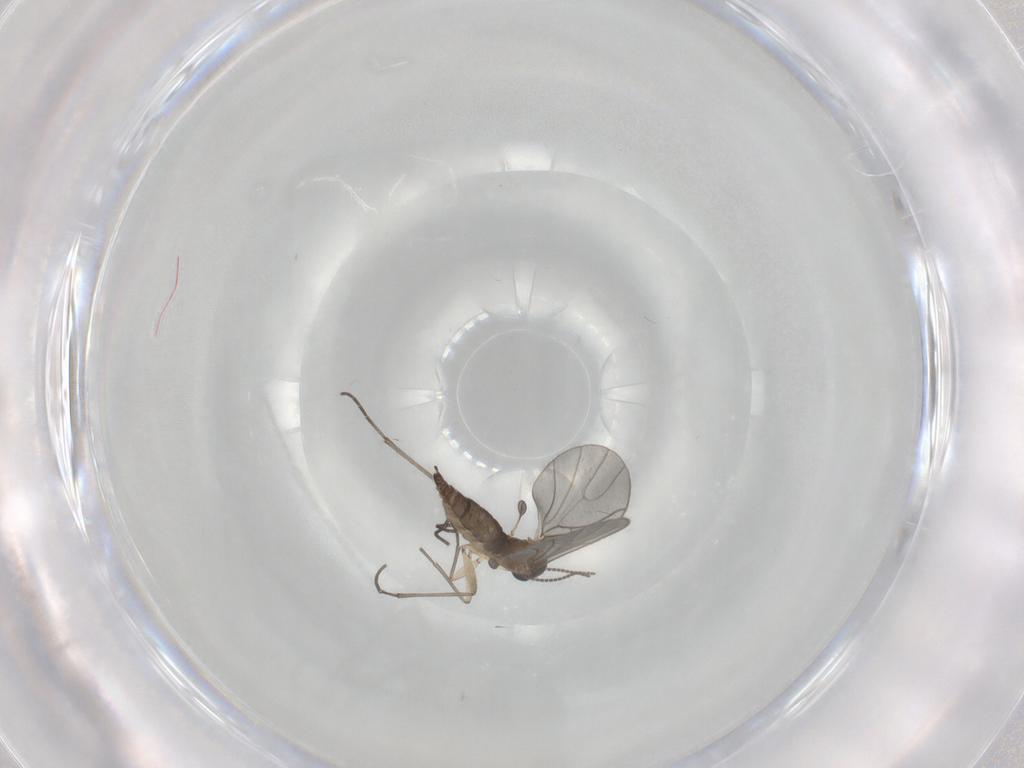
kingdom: Animalia
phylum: Arthropoda
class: Insecta
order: Diptera
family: Sciaridae
